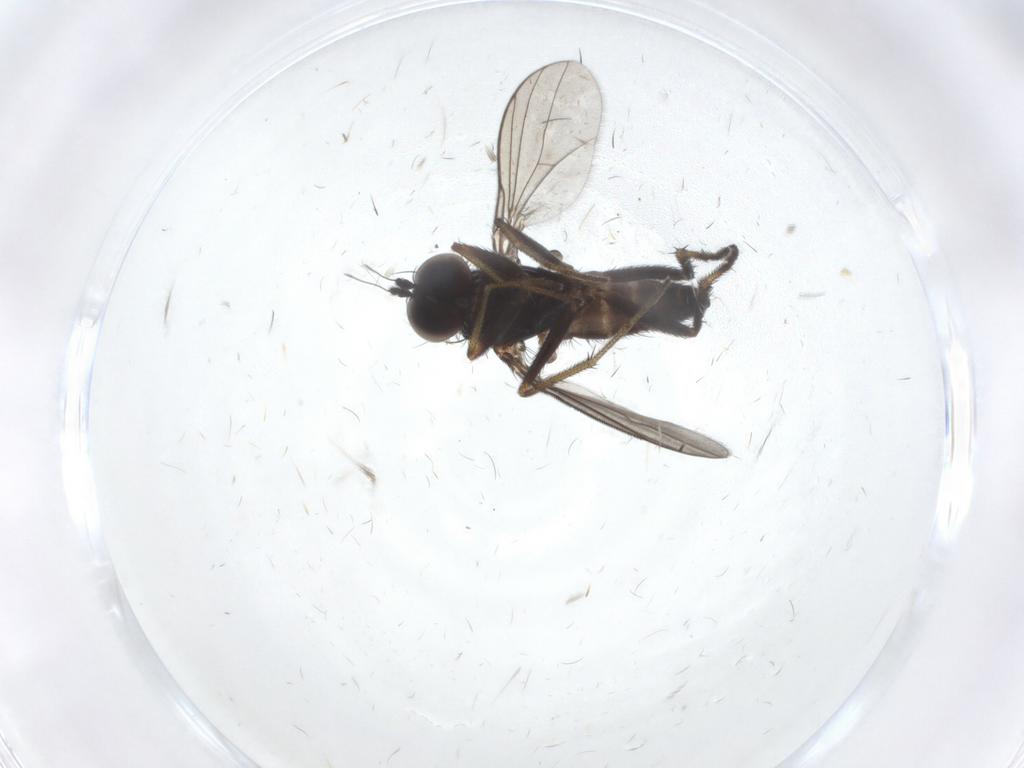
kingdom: Animalia
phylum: Arthropoda
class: Insecta
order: Diptera
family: Dolichopodidae
